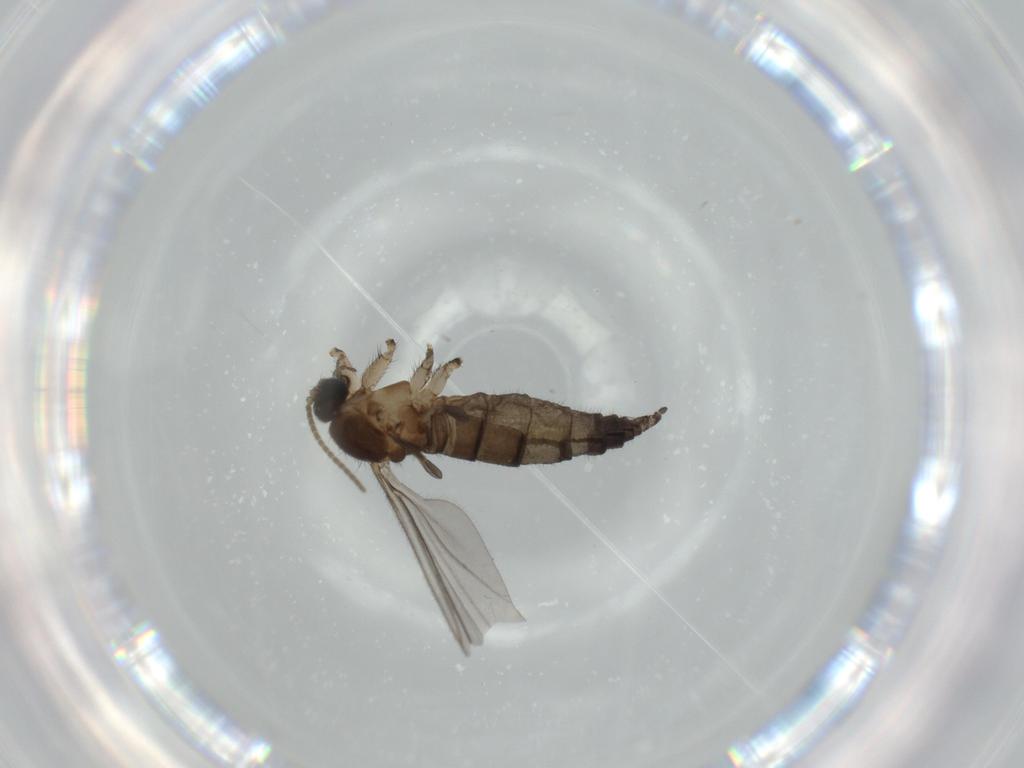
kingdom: Animalia
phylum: Arthropoda
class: Insecta
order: Diptera
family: Sciaridae
